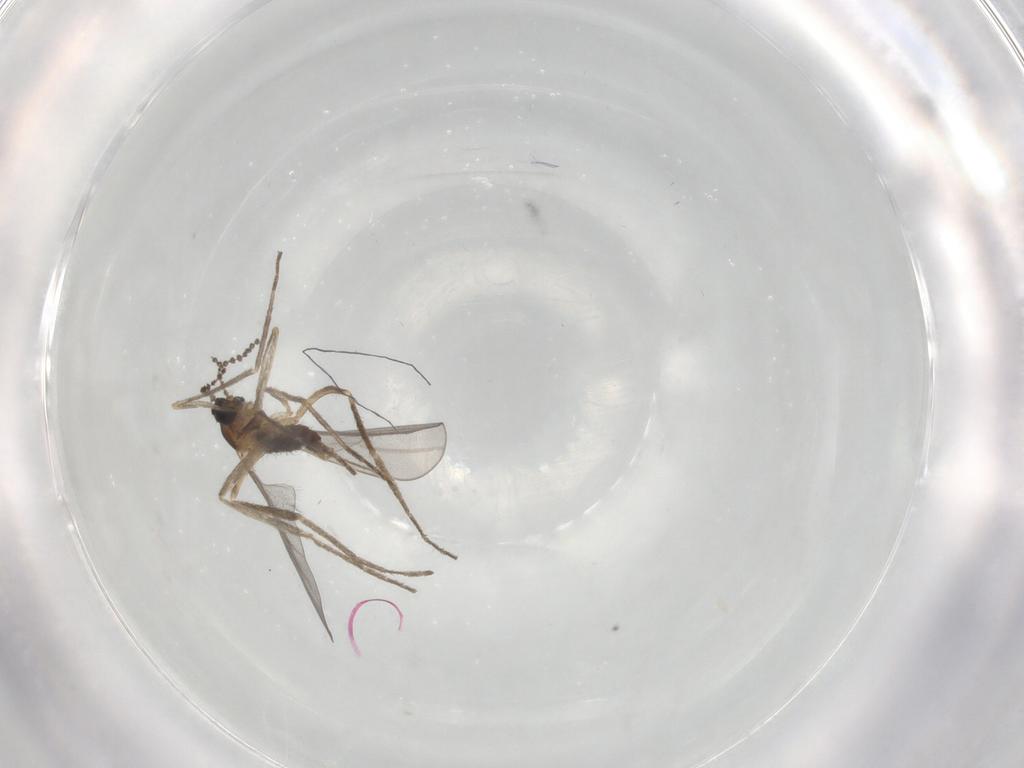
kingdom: Animalia
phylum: Arthropoda
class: Insecta
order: Diptera
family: Cecidomyiidae
